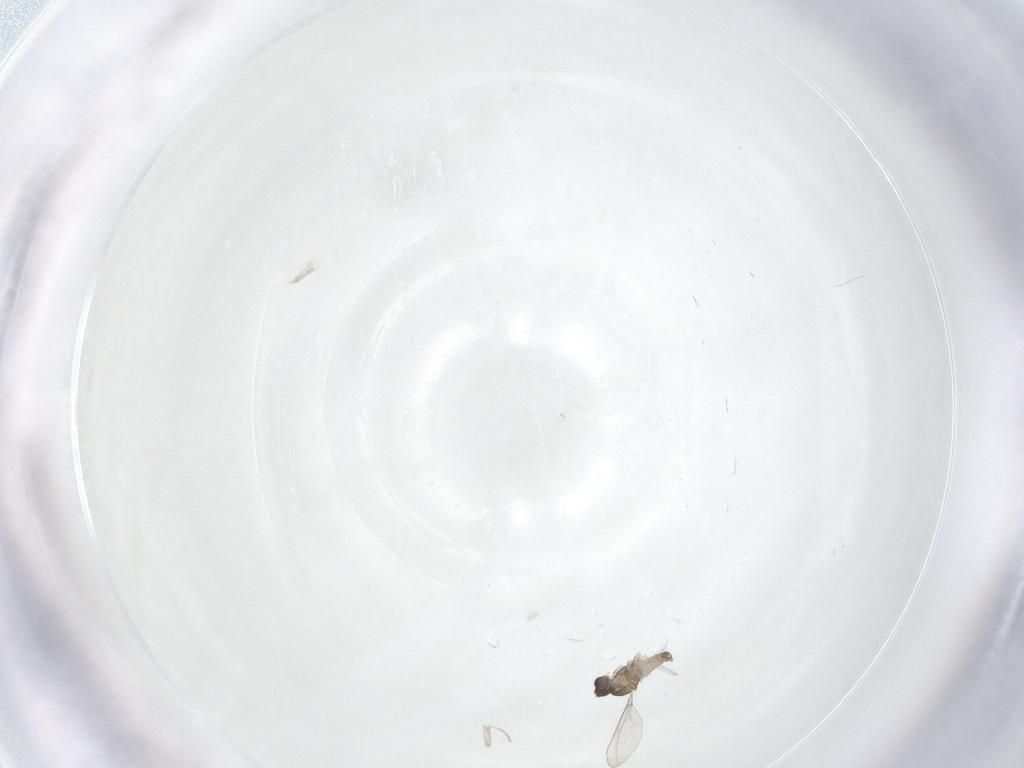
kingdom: Animalia
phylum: Arthropoda
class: Insecta
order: Diptera
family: Cecidomyiidae
